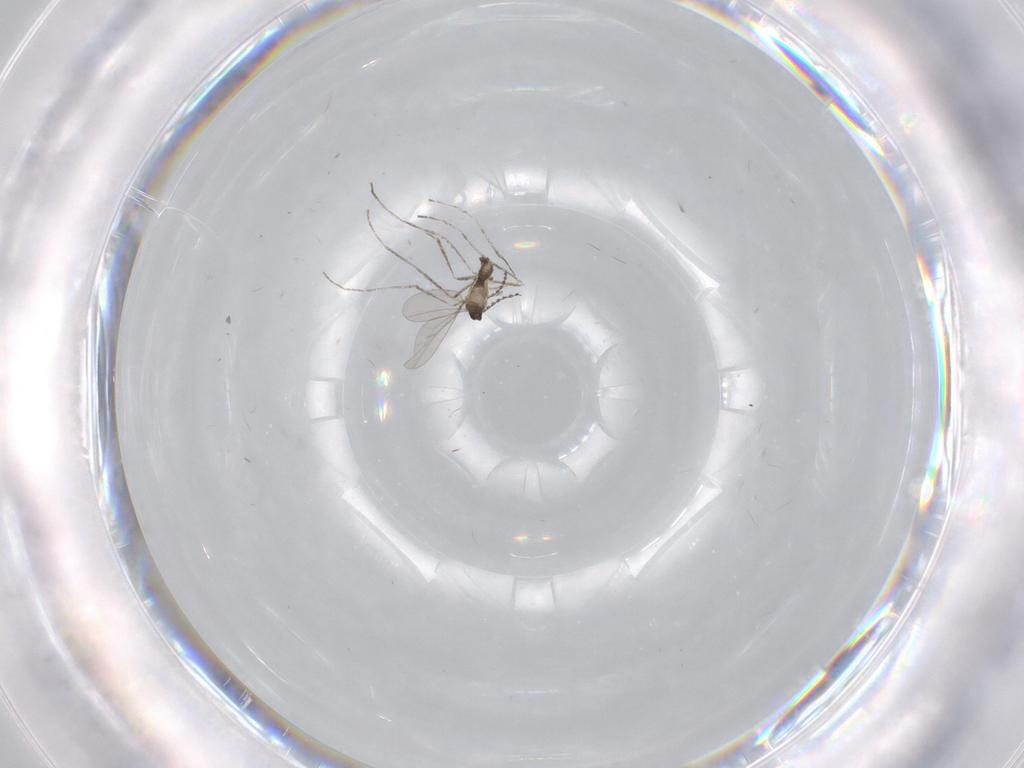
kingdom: Animalia
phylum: Arthropoda
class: Insecta
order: Diptera
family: Cecidomyiidae
